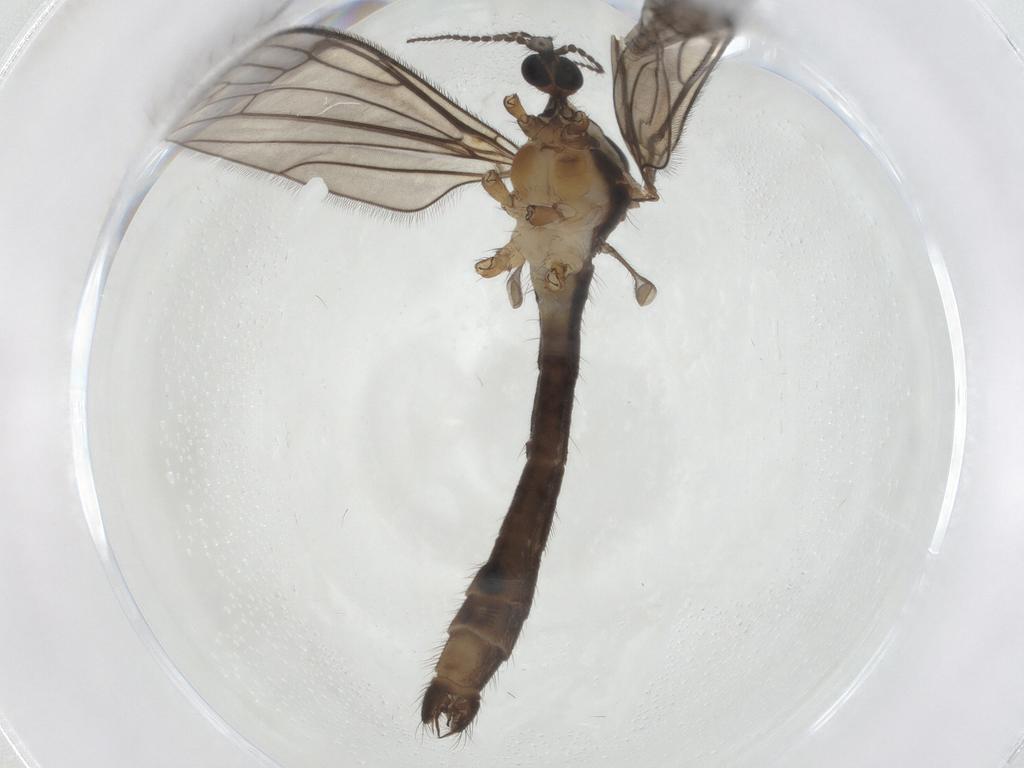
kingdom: Animalia
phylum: Arthropoda
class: Insecta
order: Diptera
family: Limoniidae
